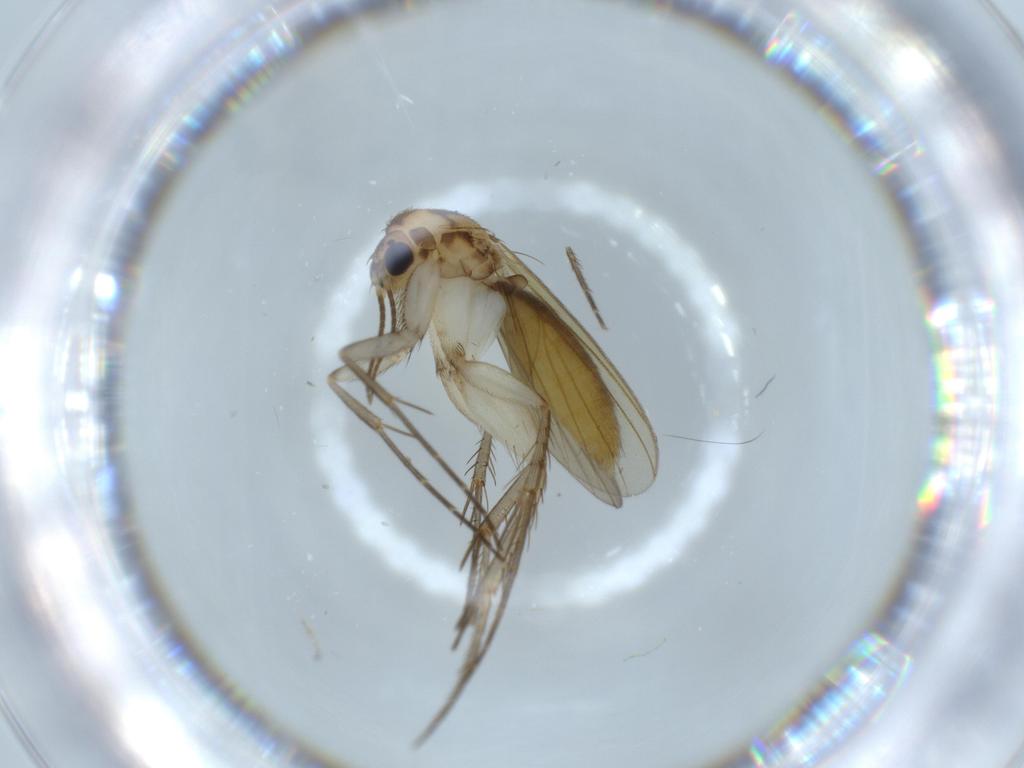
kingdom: Animalia
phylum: Arthropoda
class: Insecta
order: Diptera
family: Mycetophilidae
